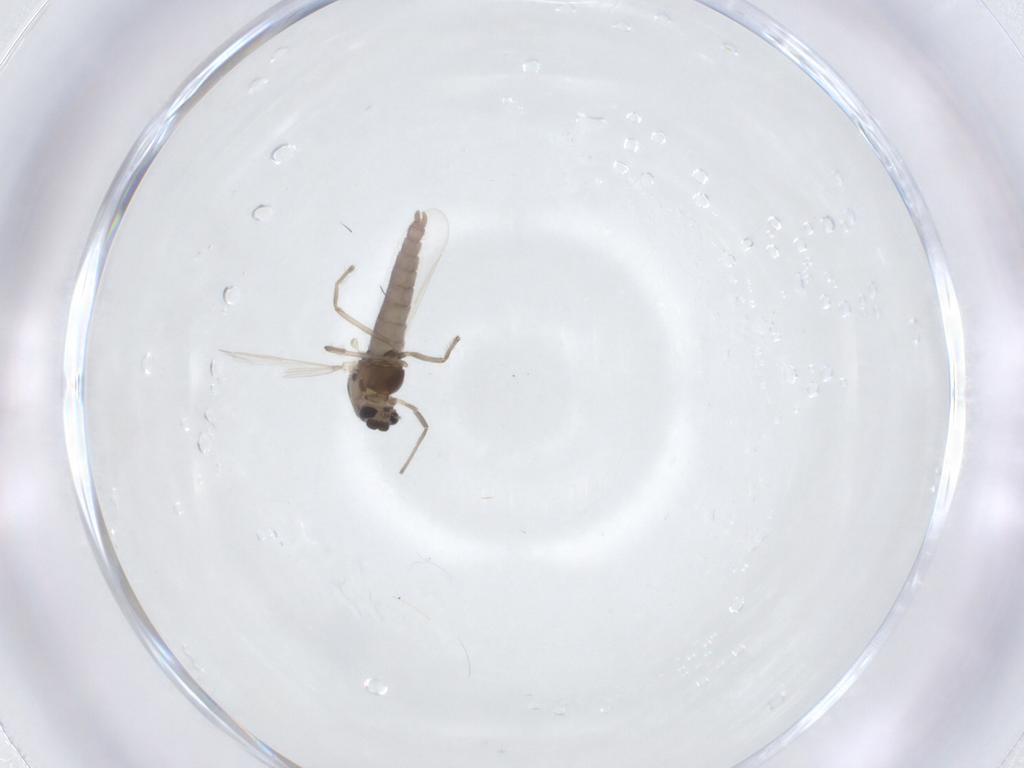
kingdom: Animalia
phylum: Arthropoda
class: Insecta
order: Diptera
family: Chironomidae
